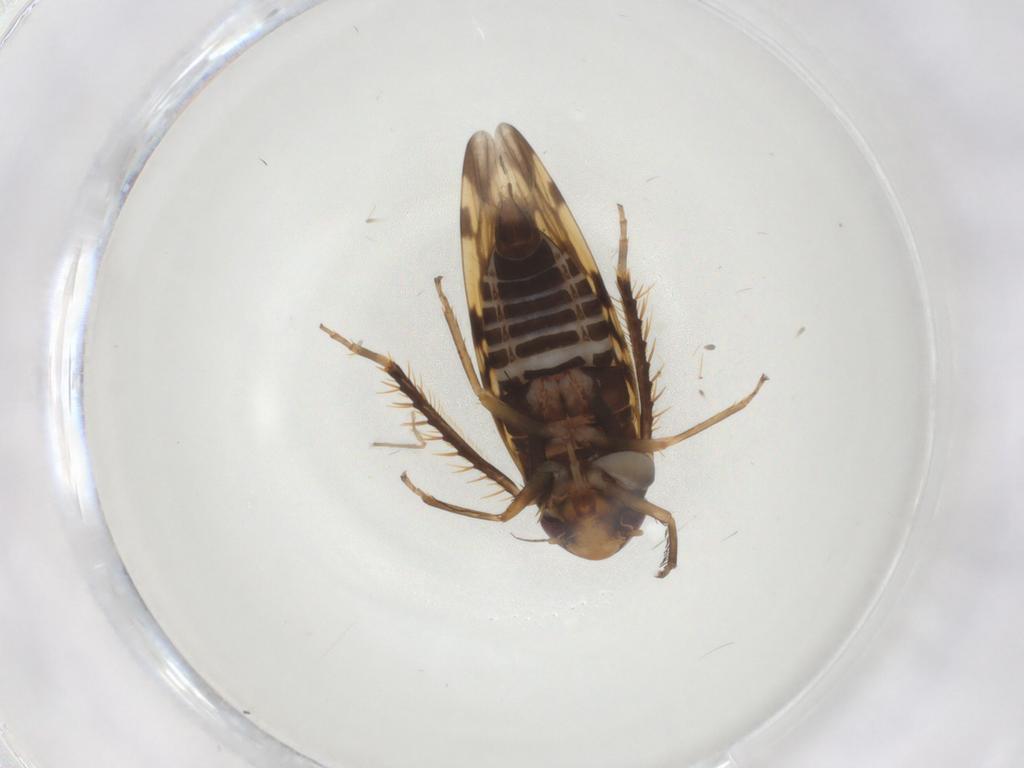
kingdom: Animalia
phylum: Arthropoda
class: Insecta
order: Hemiptera
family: Cicadellidae
